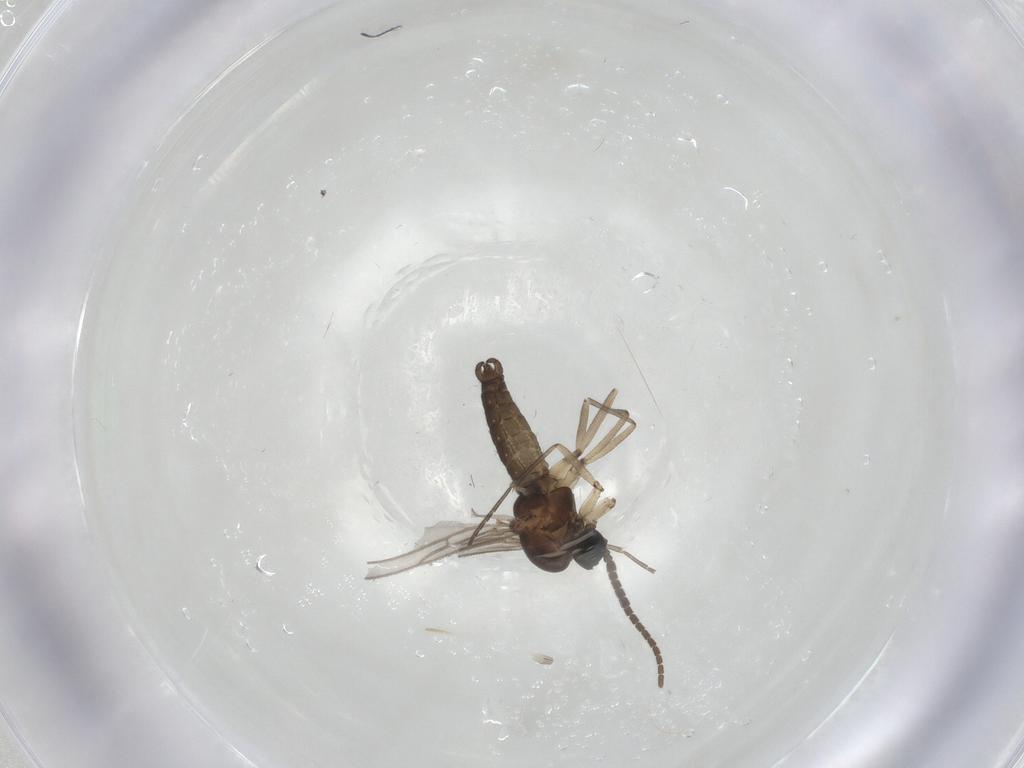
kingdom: Animalia
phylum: Arthropoda
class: Insecta
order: Diptera
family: Sciaridae
